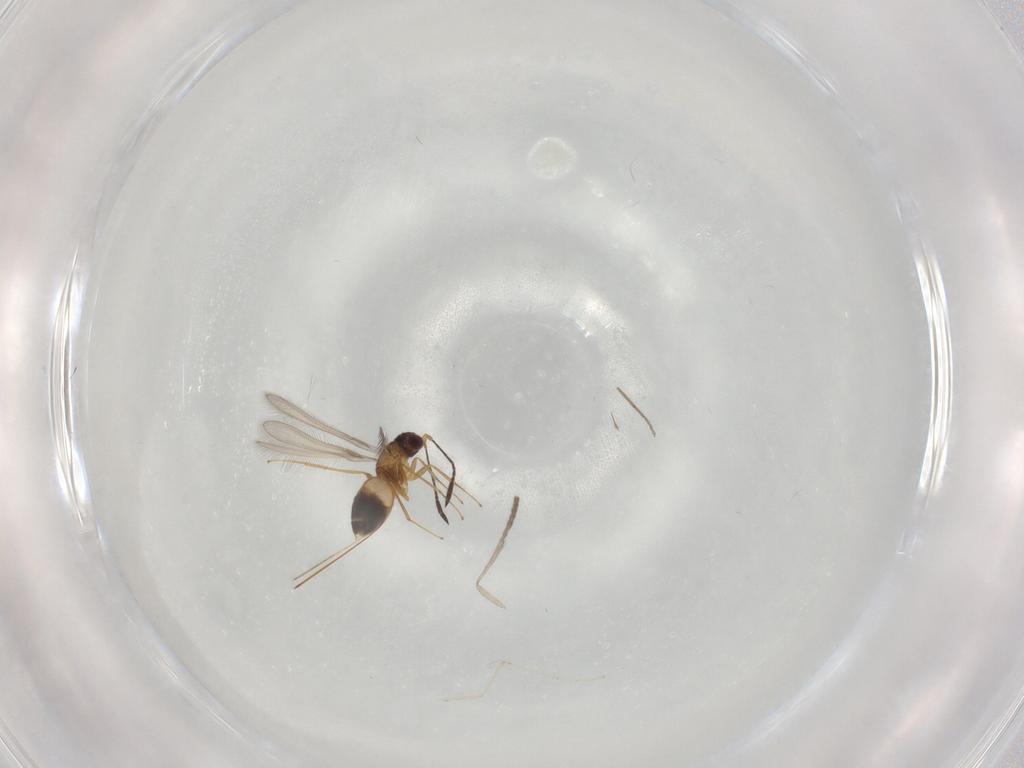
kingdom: Animalia
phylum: Arthropoda
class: Insecta
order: Diptera
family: Psychodidae
